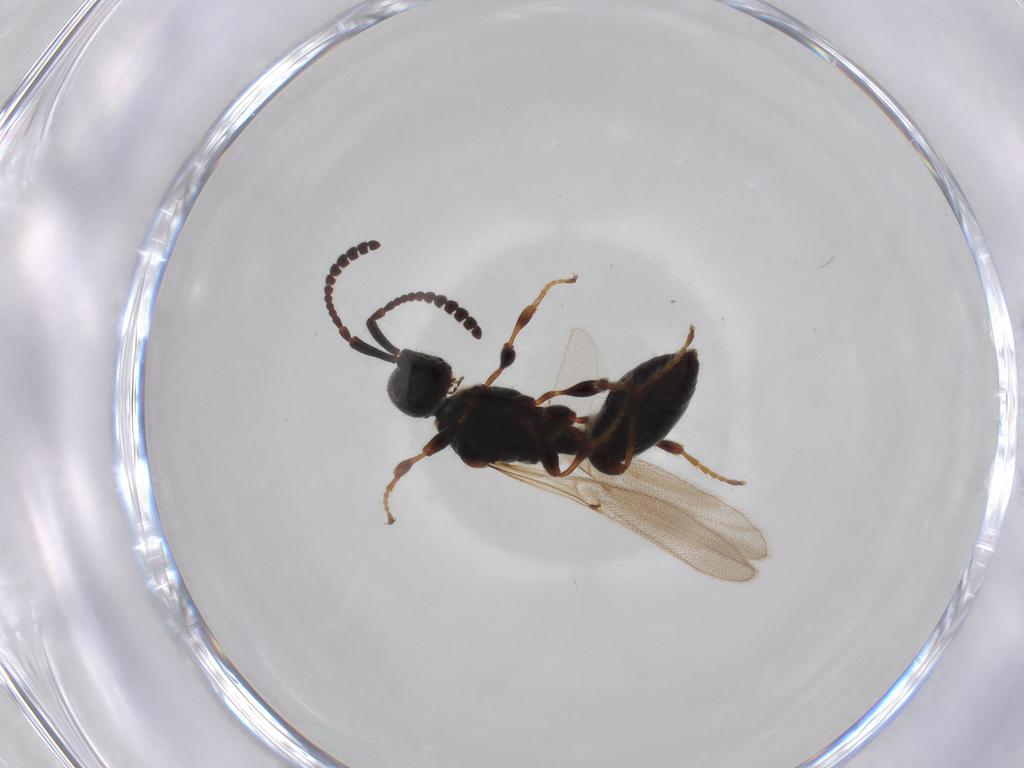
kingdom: Animalia
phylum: Arthropoda
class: Insecta
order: Hymenoptera
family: Diapriidae
